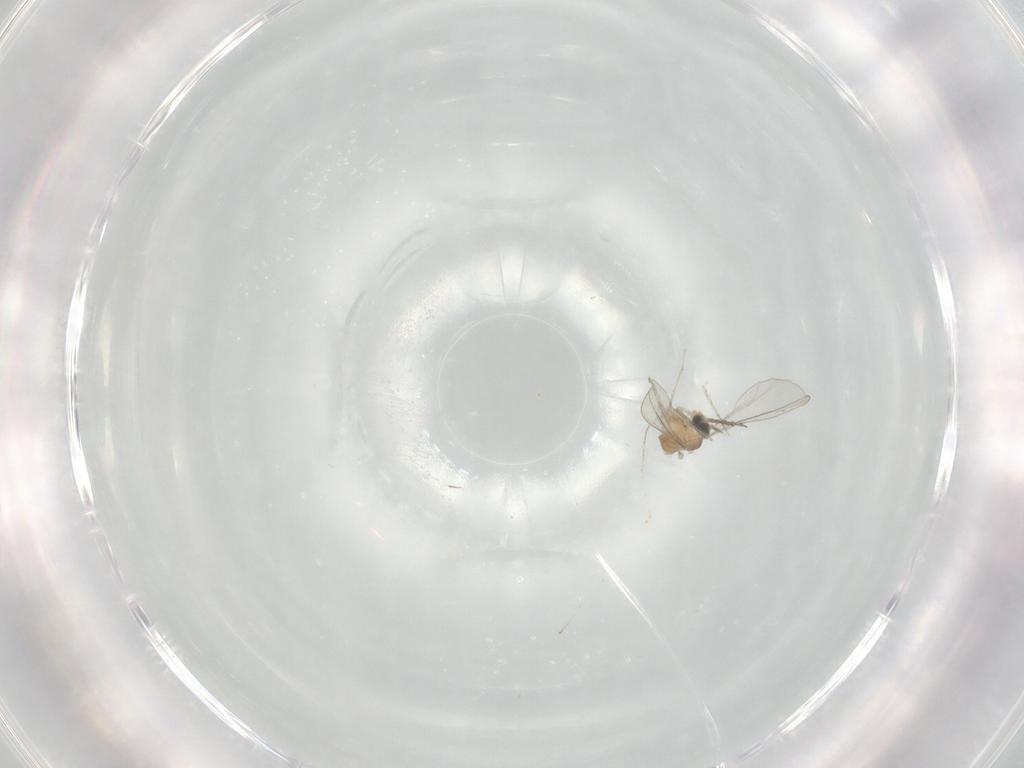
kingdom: Animalia
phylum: Arthropoda
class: Insecta
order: Diptera
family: Cecidomyiidae
